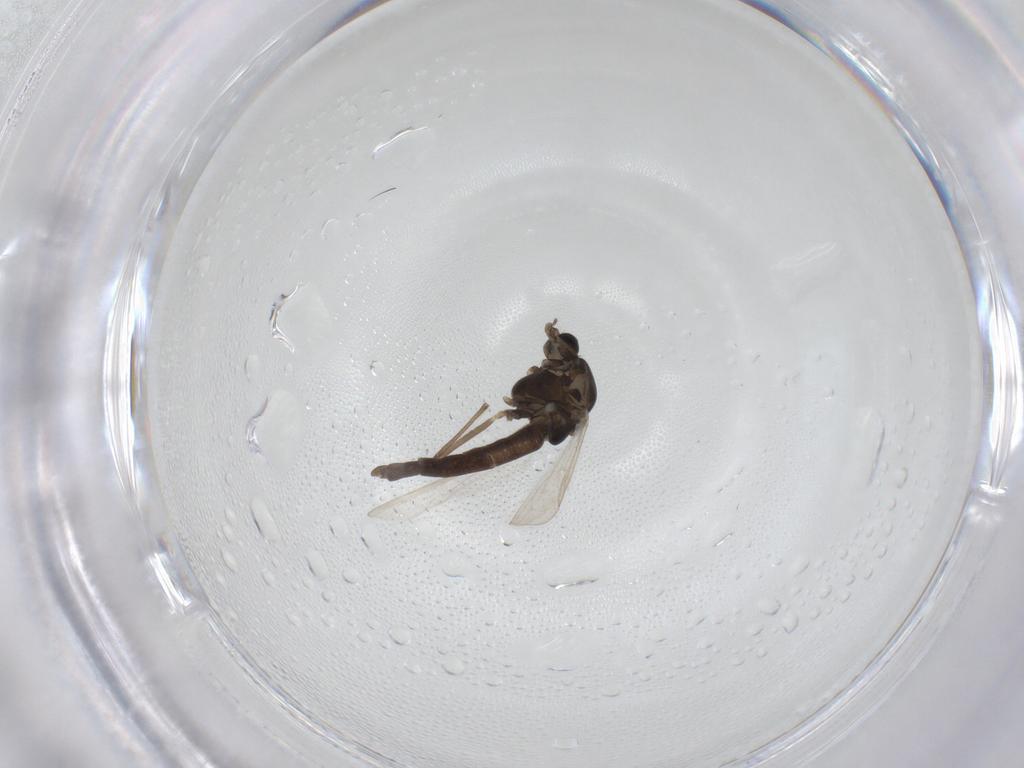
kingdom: Animalia
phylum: Arthropoda
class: Insecta
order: Diptera
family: Chironomidae
